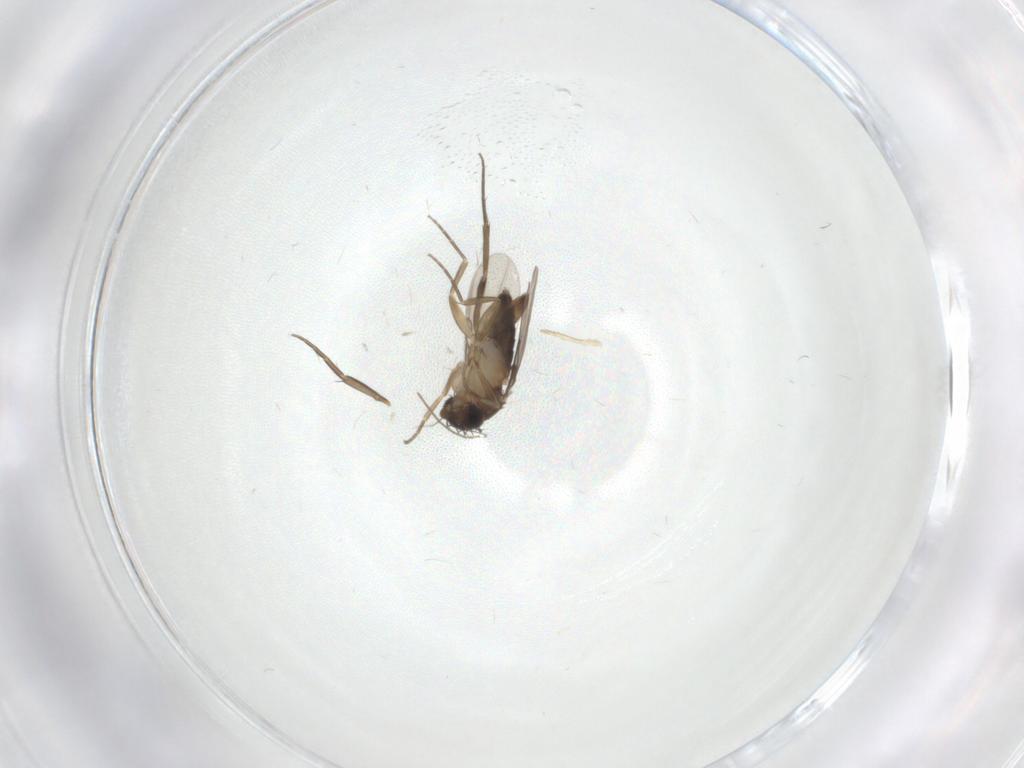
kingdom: Animalia
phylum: Arthropoda
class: Insecta
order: Diptera
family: Phoridae
